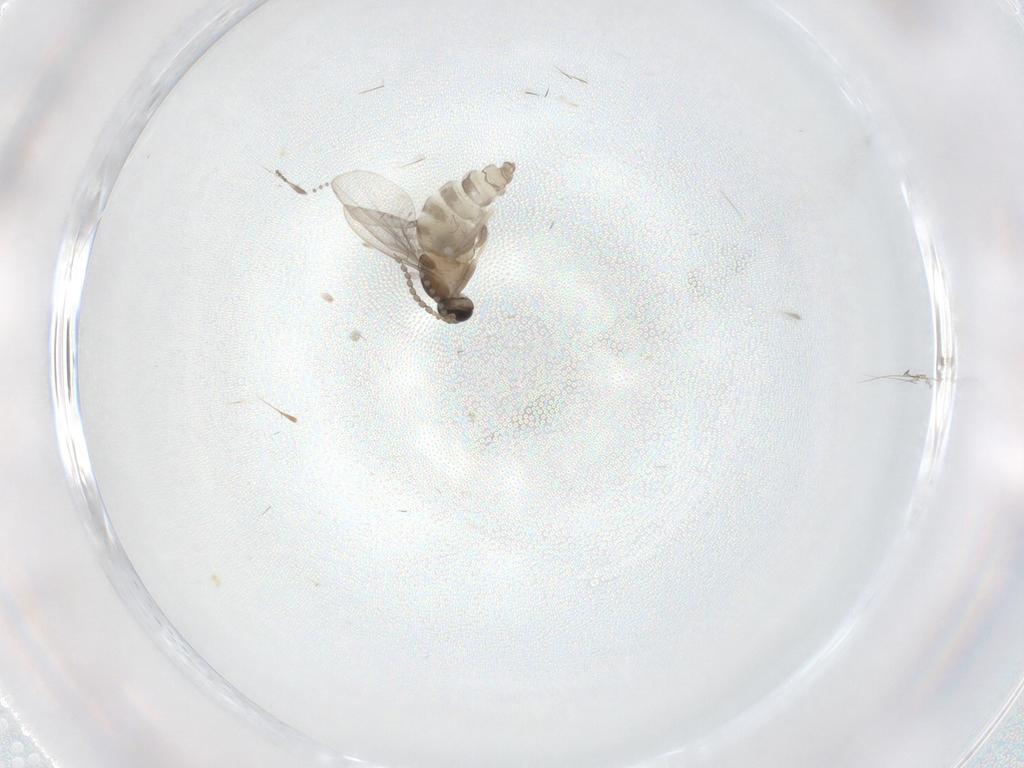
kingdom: Animalia
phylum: Arthropoda
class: Insecta
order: Diptera
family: Cecidomyiidae
